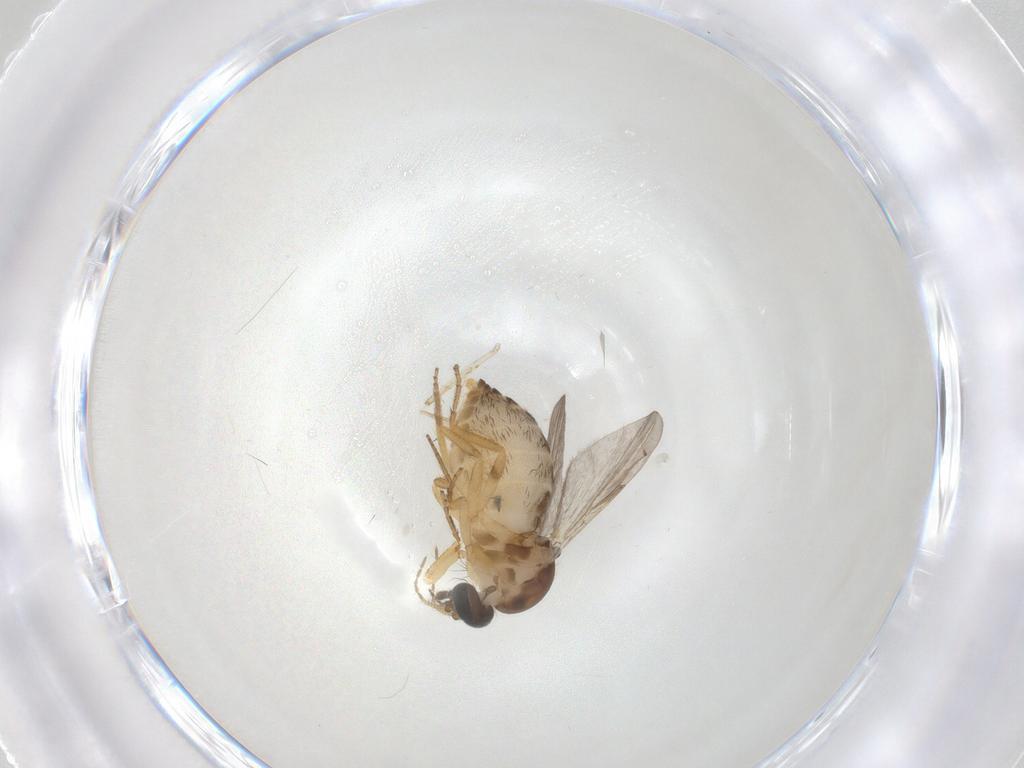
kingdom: Animalia
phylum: Arthropoda
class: Insecta
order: Diptera
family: Ceratopogonidae
